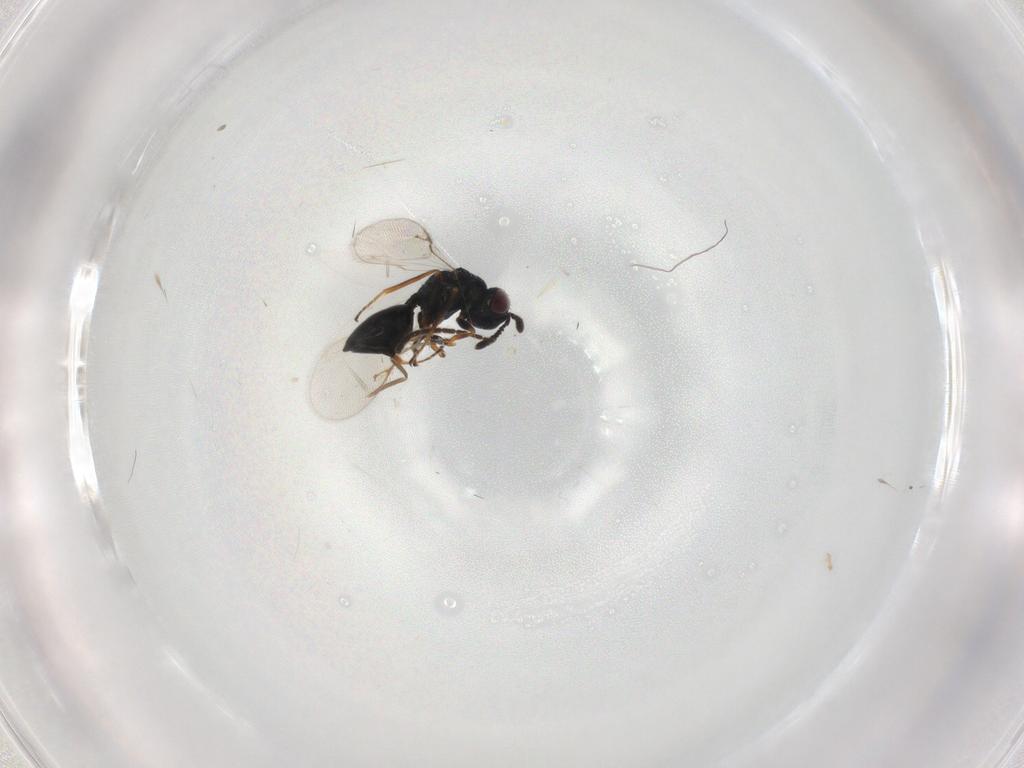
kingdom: Animalia
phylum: Arthropoda
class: Insecta
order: Hymenoptera
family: Chalcidoidea_incertae_sedis
